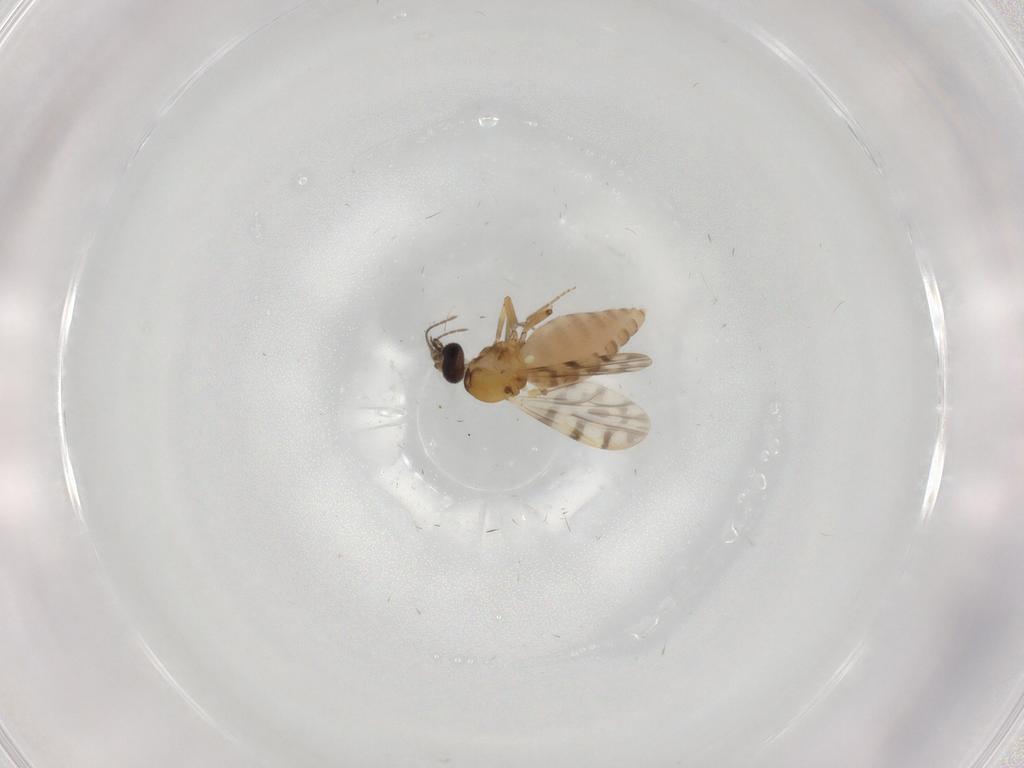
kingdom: Animalia
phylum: Arthropoda
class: Insecta
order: Diptera
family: Ceratopogonidae
